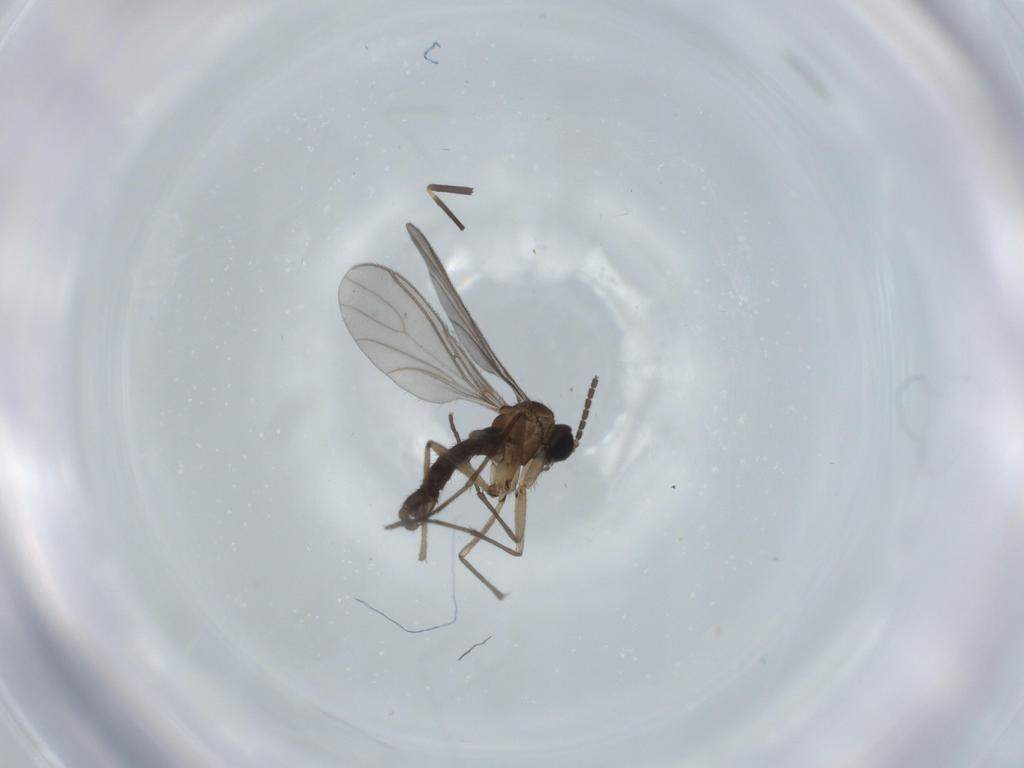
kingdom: Animalia
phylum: Arthropoda
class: Insecta
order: Diptera
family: Chironomidae
